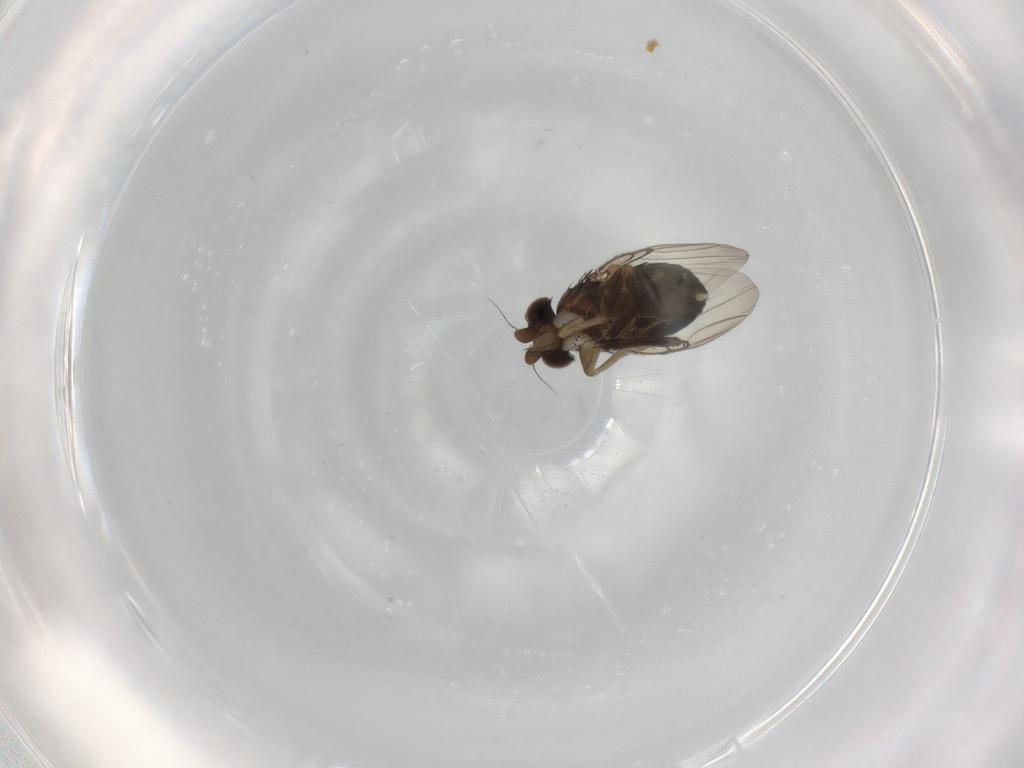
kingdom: Animalia
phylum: Arthropoda
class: Insecta
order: Diptera
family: Phoridae
